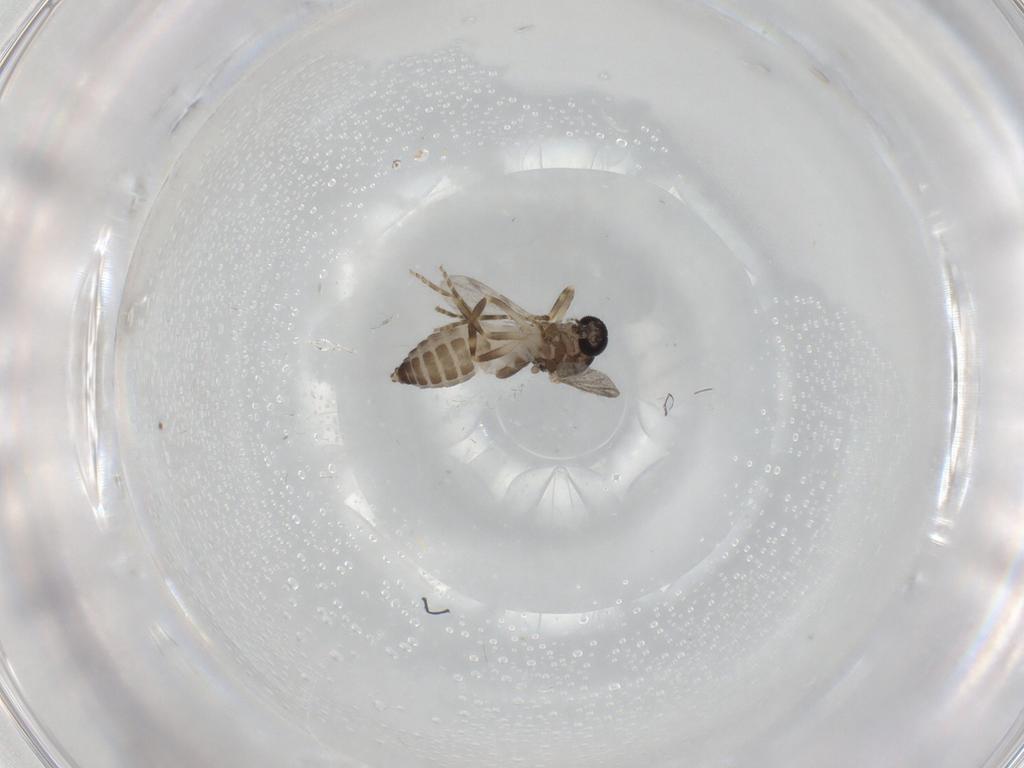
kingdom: Animalia
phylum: Arthropoda
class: Insecta
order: Diptera
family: Ceratopogonidae
